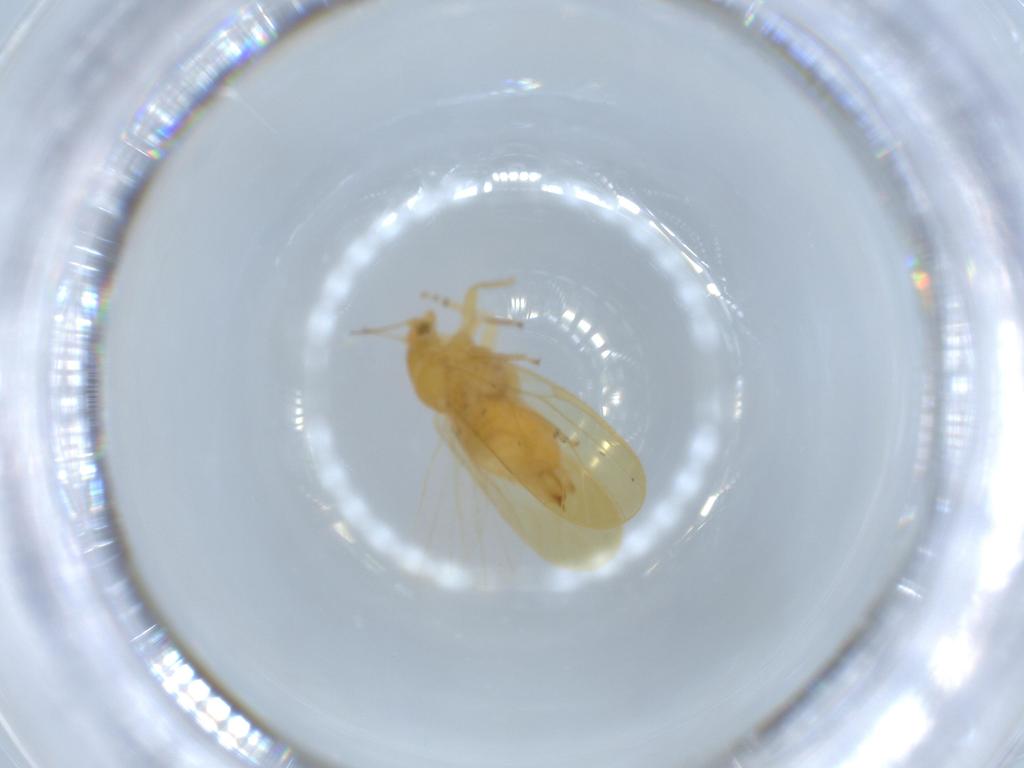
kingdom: Animalia
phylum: Arthropoda
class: Insecta
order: Hemiptera
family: Psyllidae
